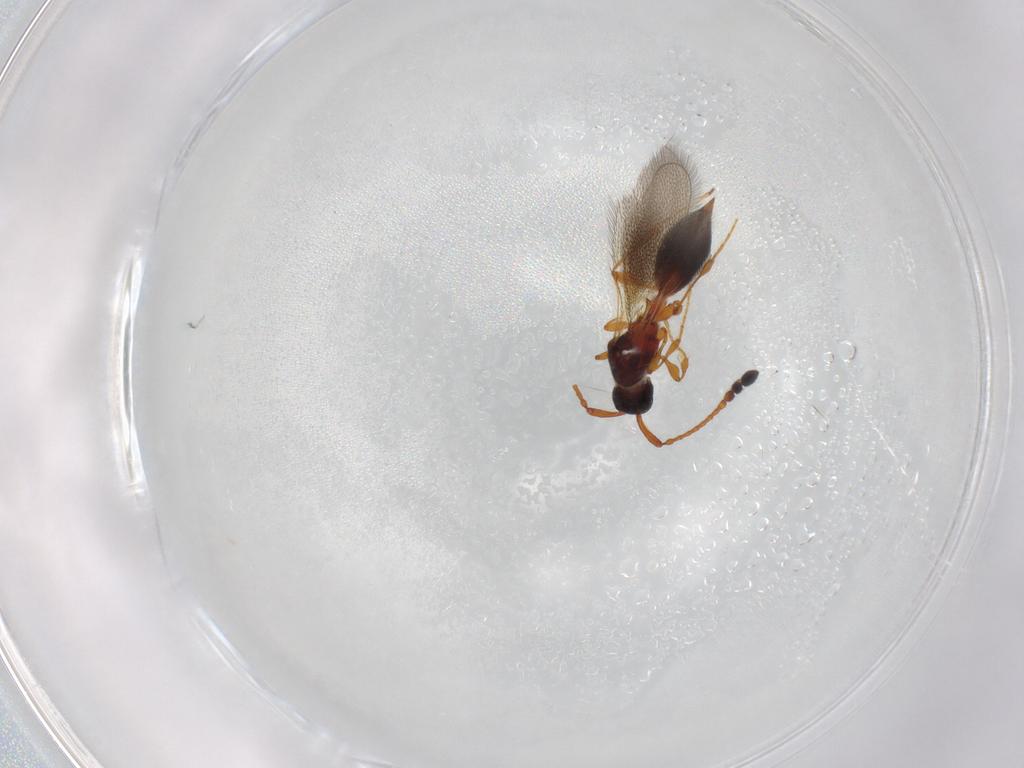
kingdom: Animalia
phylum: Arthropoda
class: Insecta
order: Hymenoptera
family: Diapriidae
